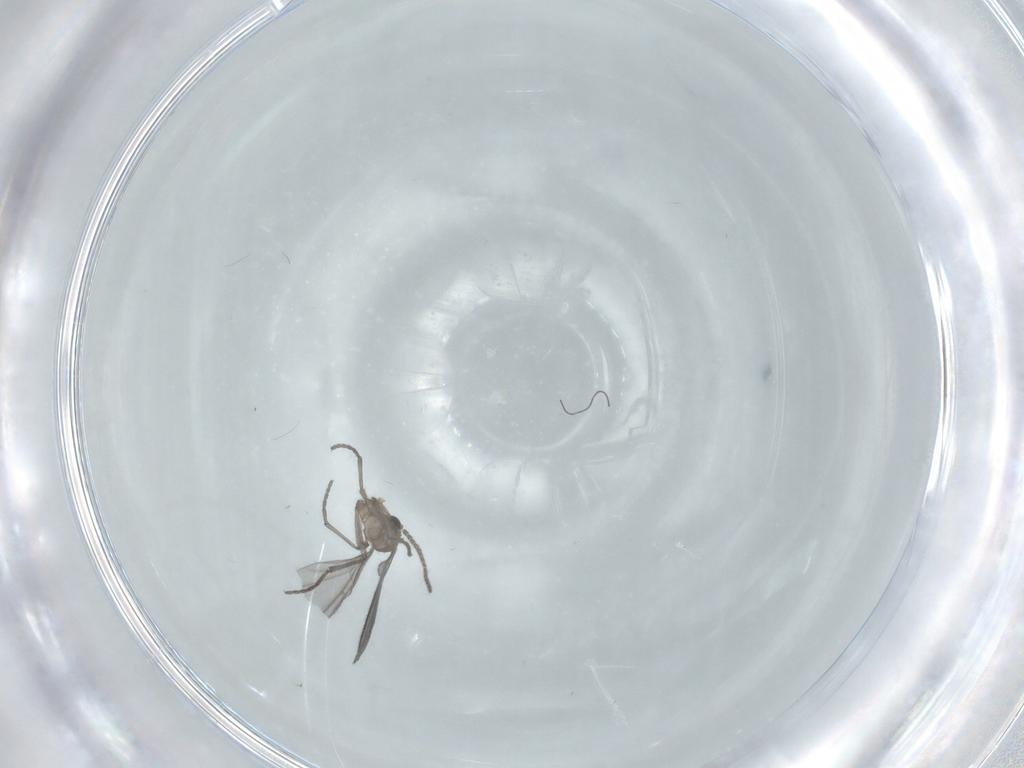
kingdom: Animalia
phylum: Arthropoda
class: Insecta
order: Diptera
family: Sciaridae
